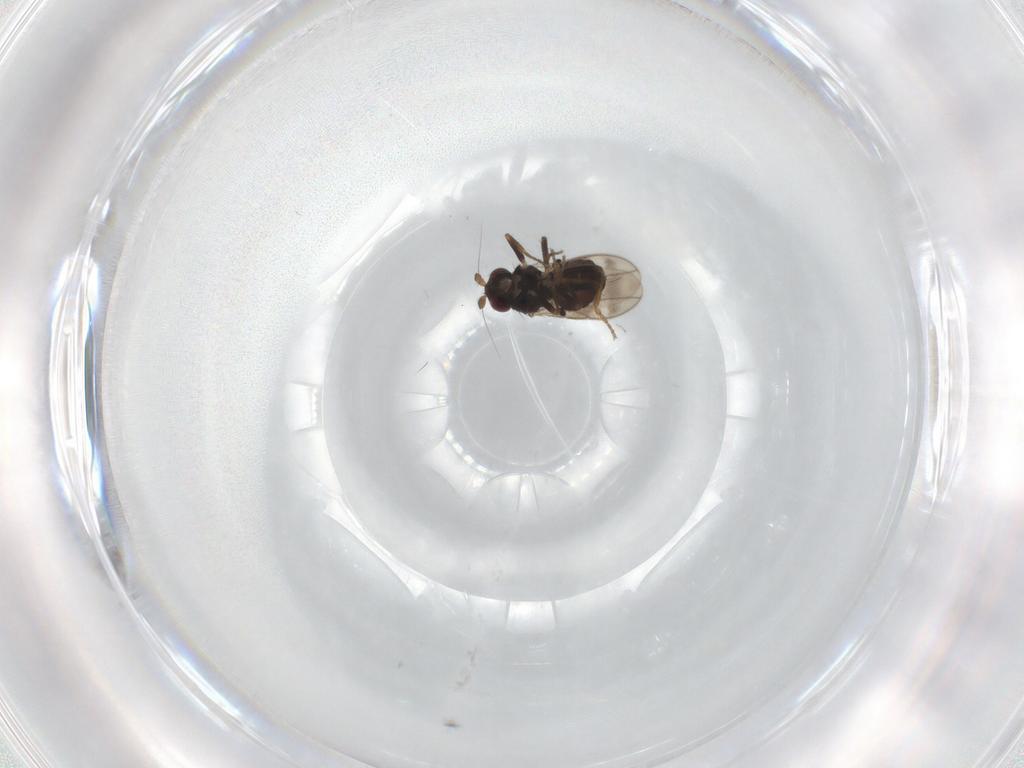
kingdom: Animalia
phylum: Arthropoda
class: Insecta
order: Diptera
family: Sphaeroceridae
